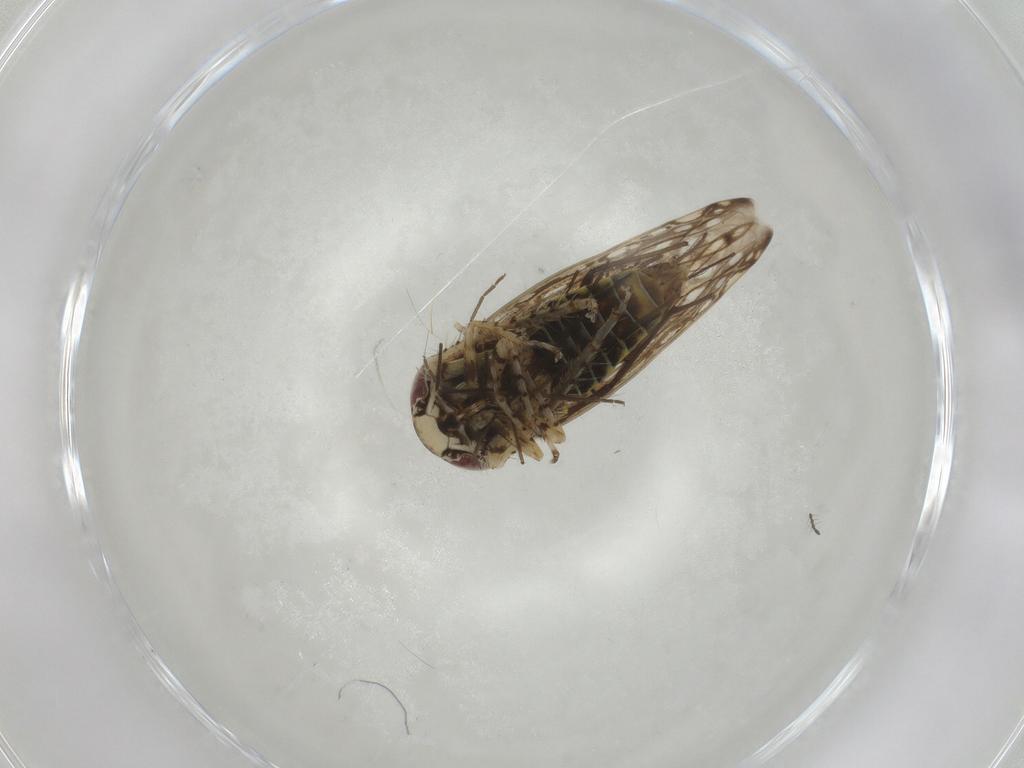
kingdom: Animalia
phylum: Arthropoda
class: Insecta
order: Hemiptera
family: Cicadellidae
